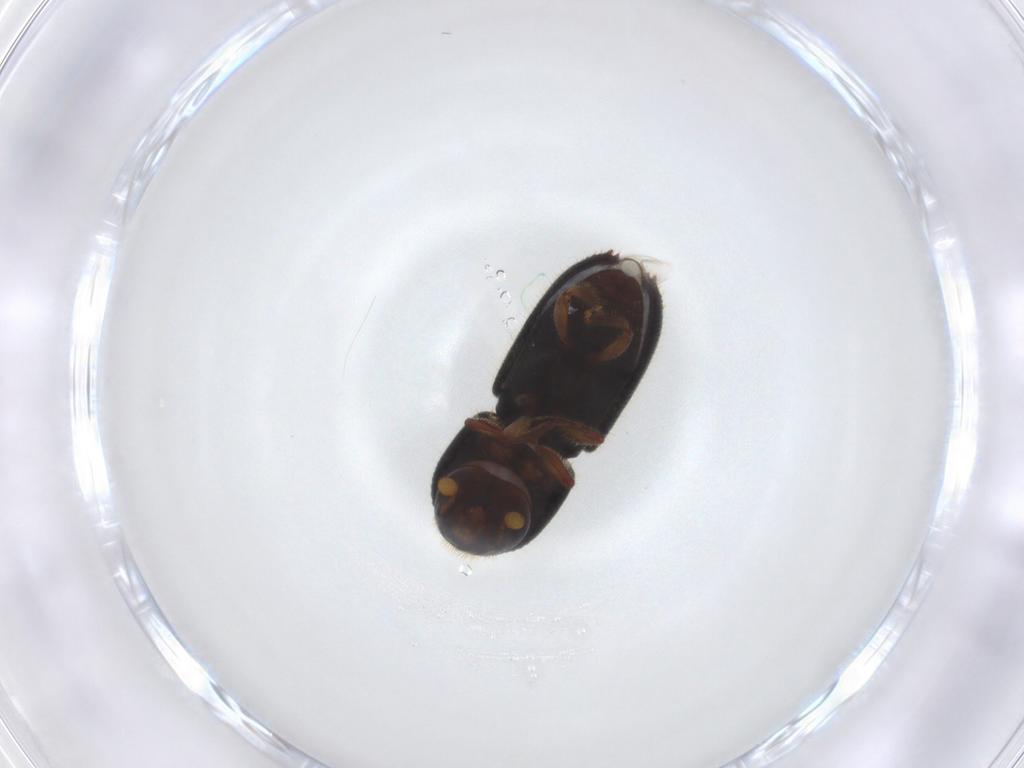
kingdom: Animalia
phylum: Arthropoda
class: Insecta
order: Coleoptera
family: Curculionidae
